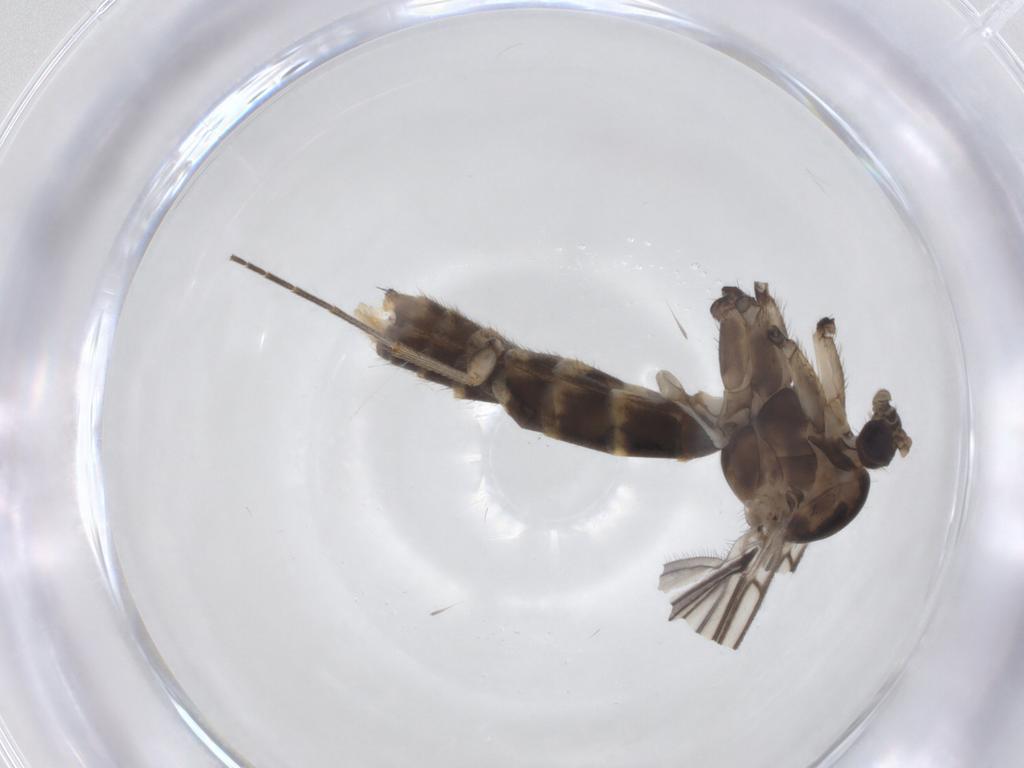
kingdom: Animalia
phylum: Arthropoda
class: Insecta
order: Diptera
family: Mycetophilidae
